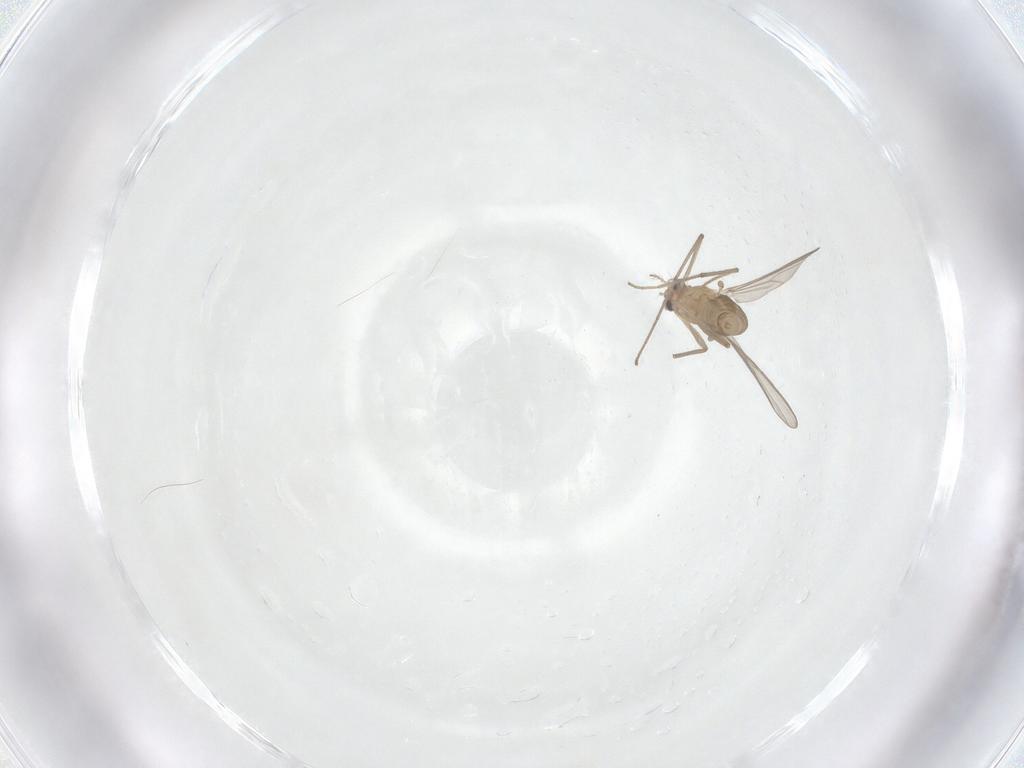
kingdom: Animalia
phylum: Arthropoda
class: Insecta
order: Diptera
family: Chironomidae
